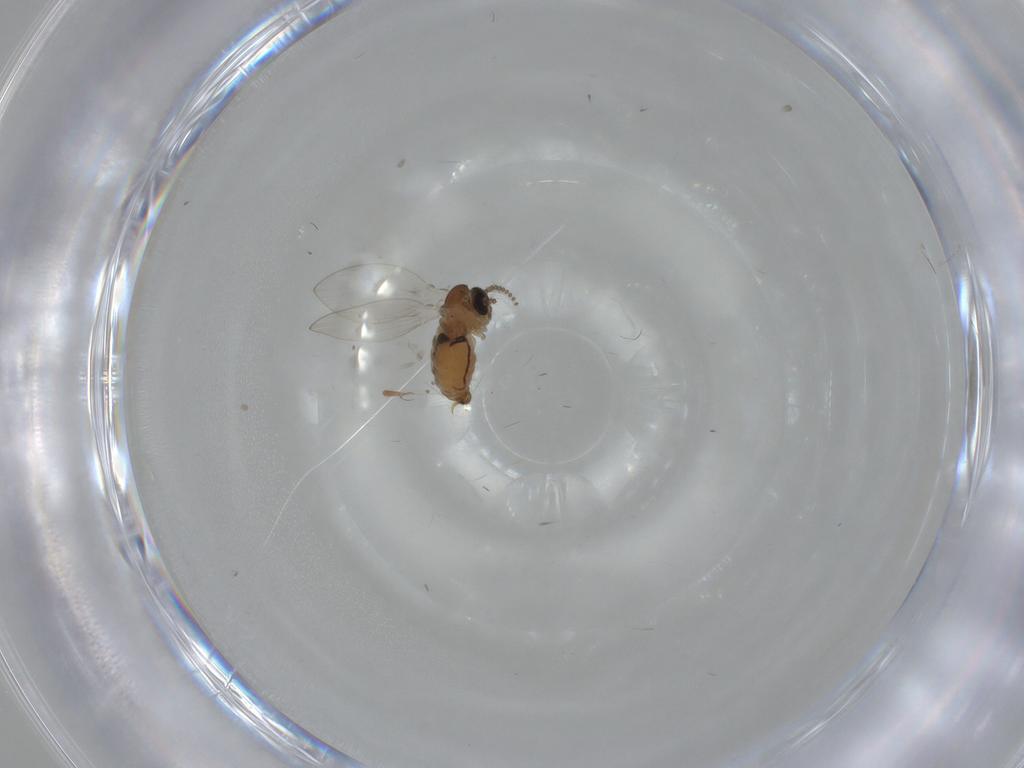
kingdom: Animalia
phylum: Arthropoda
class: Insecta
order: Diptera
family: Psychodidae
